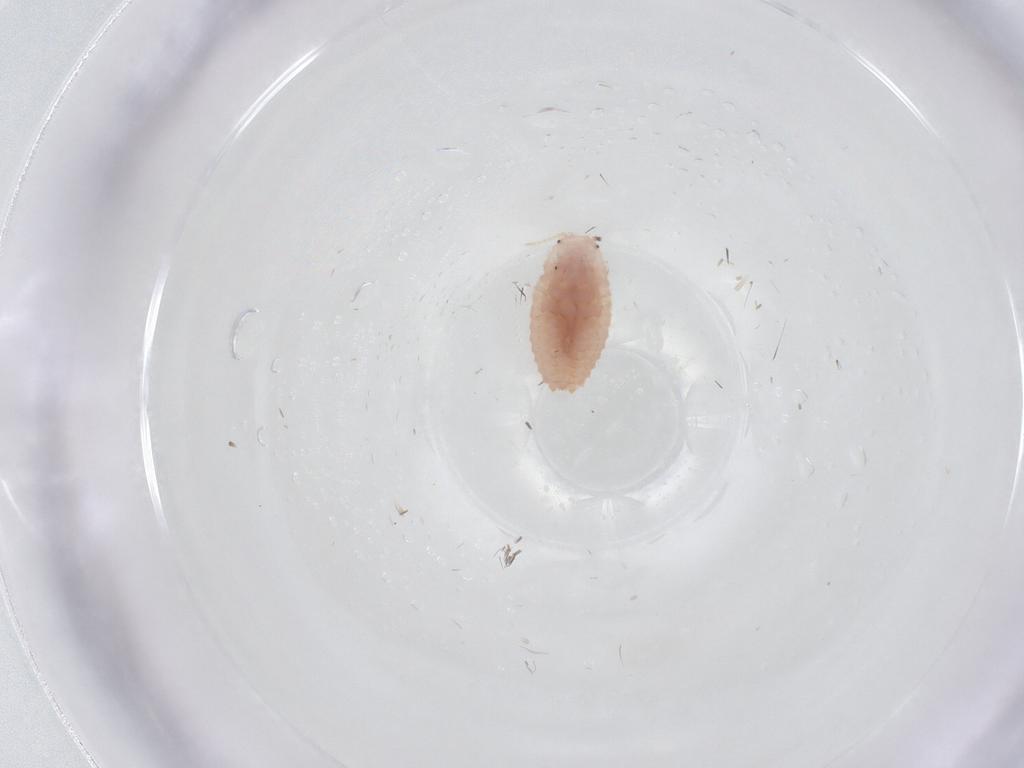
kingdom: Animalia
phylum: Arthropoda
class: Insecta
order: Diptera
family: Cecidomyiidae
